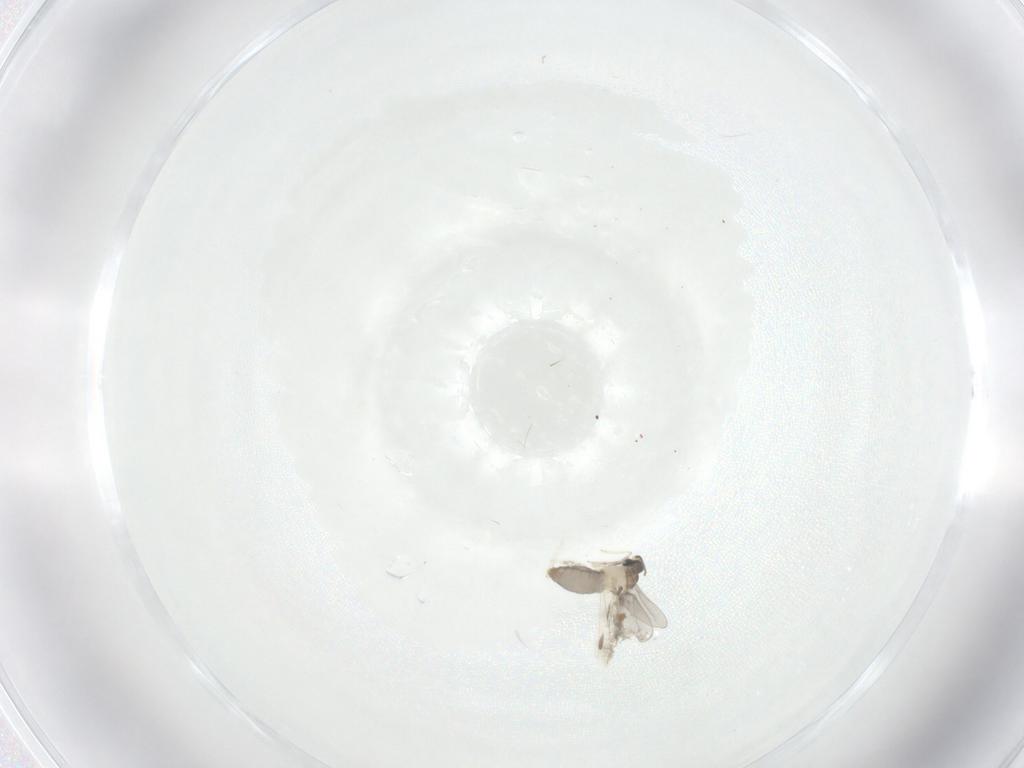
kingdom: Animalia
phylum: Arthropoda
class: Insecta
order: Diptera
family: Cecidomyiidae
